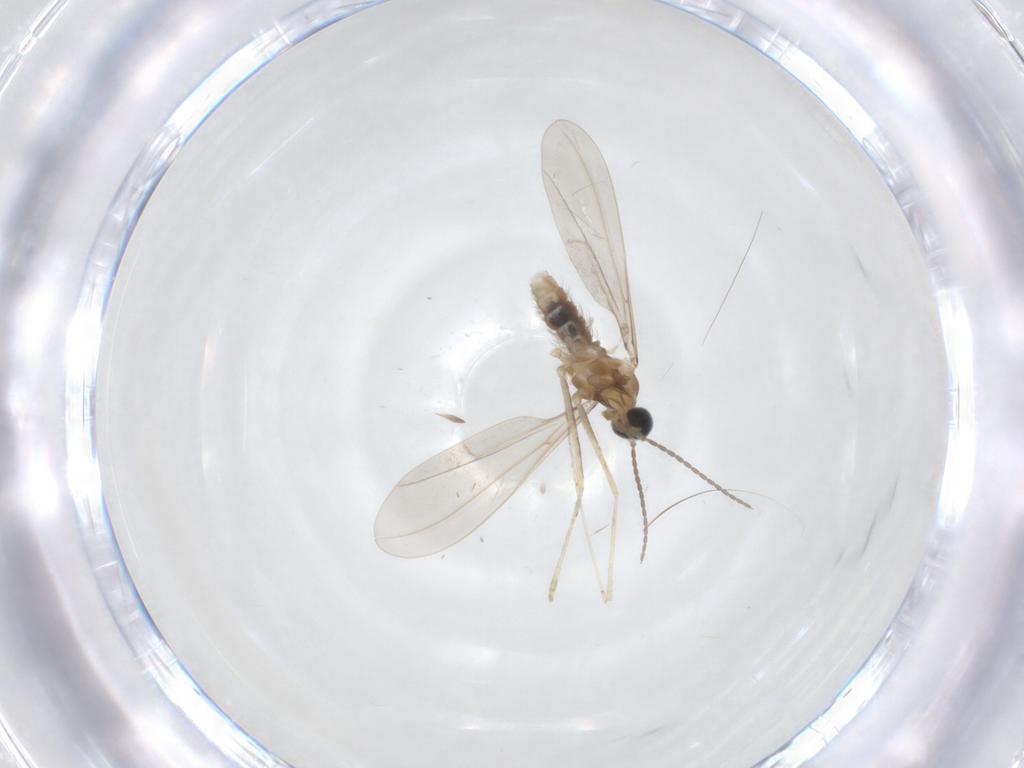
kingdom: Animalia
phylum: Arthropoda
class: Insecta
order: Diptera
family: Cecidomyiidae
